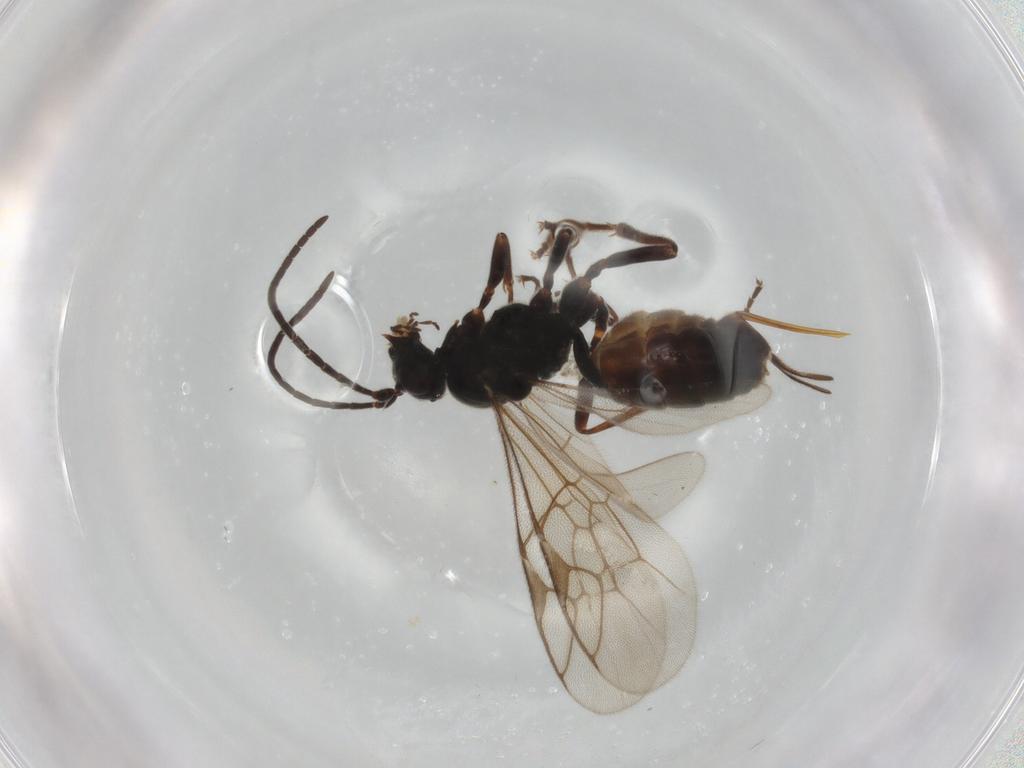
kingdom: Animalia
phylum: Arthropoda
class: Insecta
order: Hymenoptera
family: Ichneumonidae
